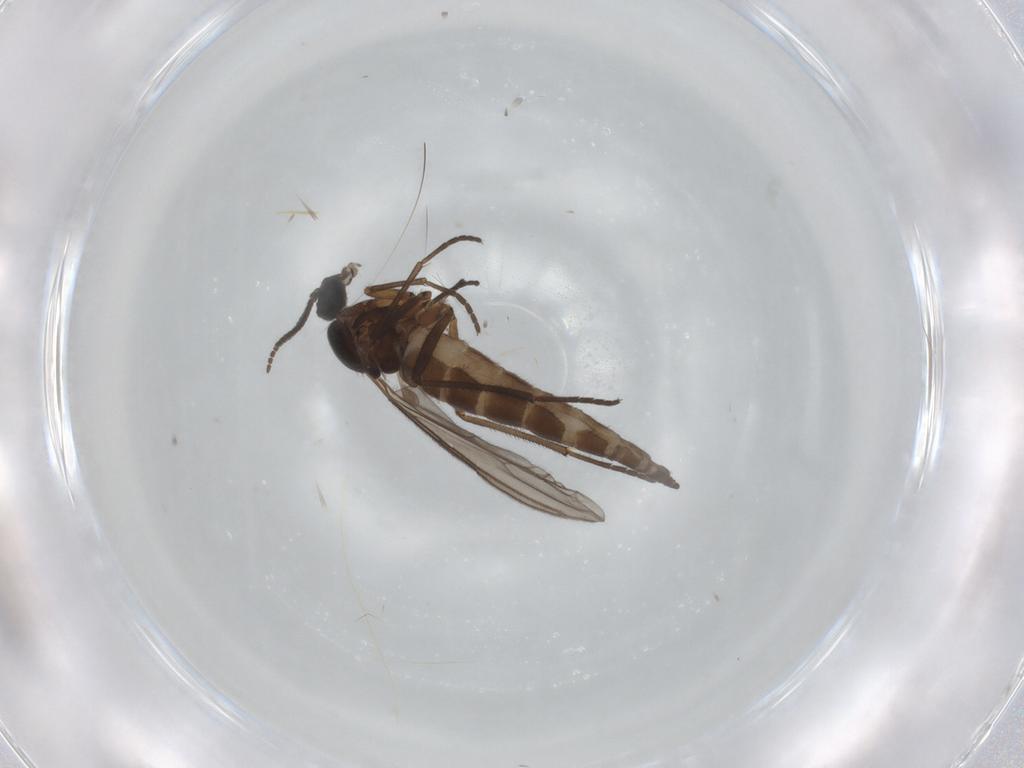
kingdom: Animalia
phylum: Arthropoda
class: Insecta
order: Diptera
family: Sciaridae
